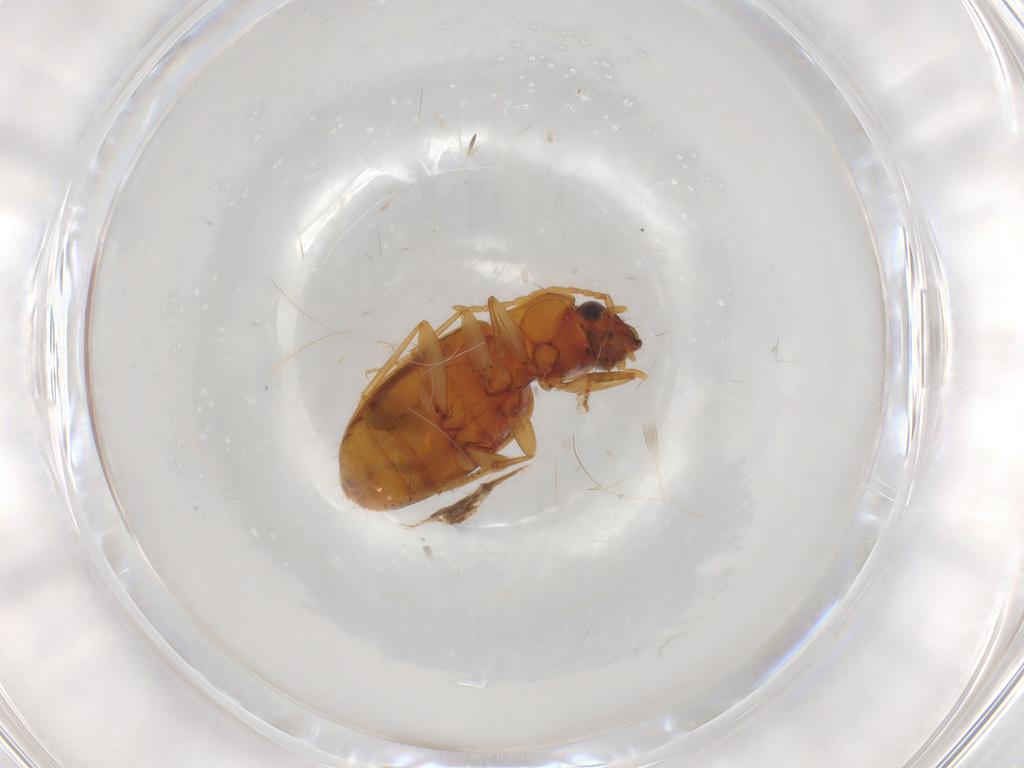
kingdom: Animalia
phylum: Arthropoda
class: Insecta
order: Coleoptera
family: Carabidae
